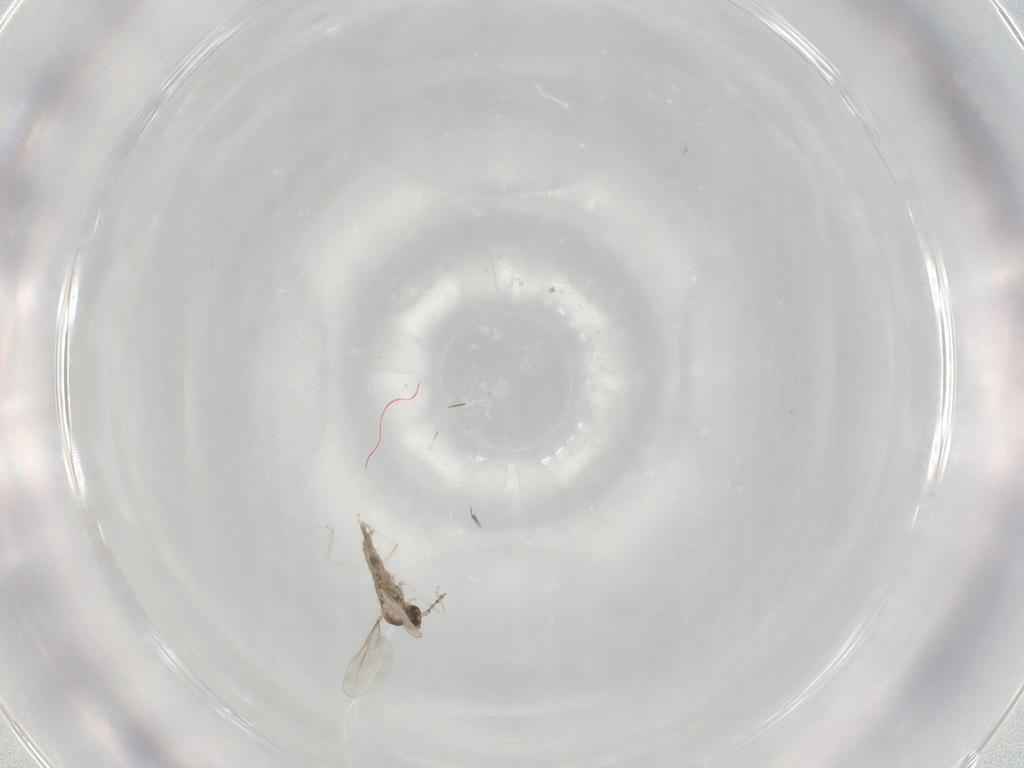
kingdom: Animalia
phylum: Arthropoda
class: Insecta
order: Diptera
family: Cecidomyiidae
